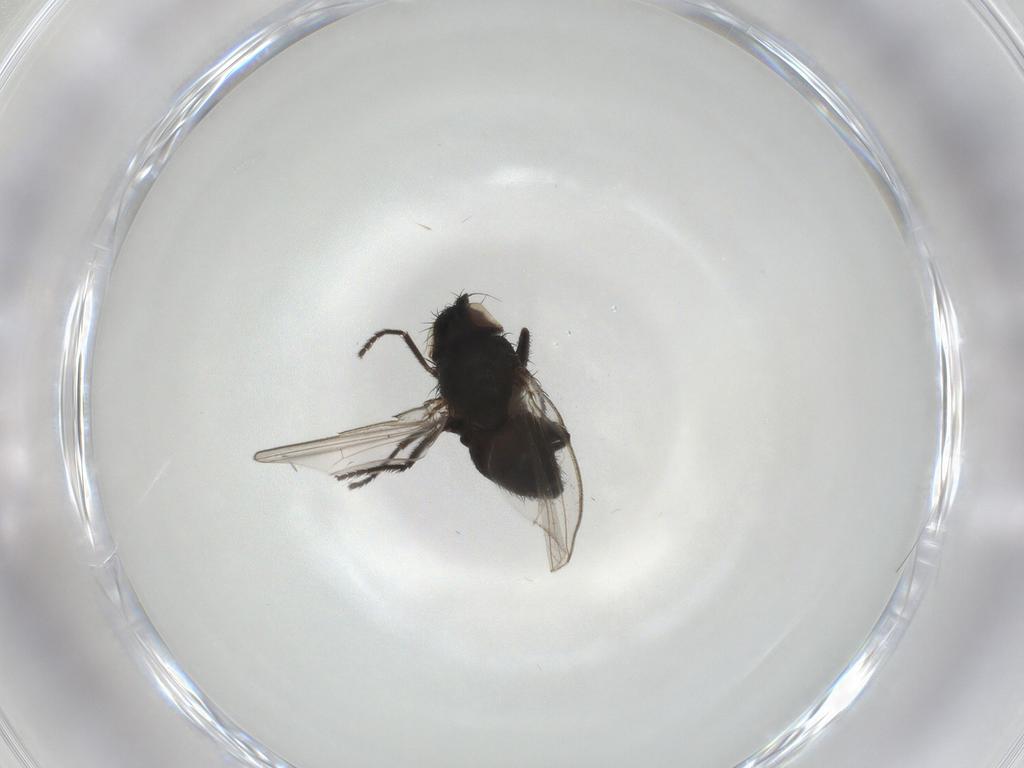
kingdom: Animalia
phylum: Arthropoda
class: Insecta
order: Diptera
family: Milichiidae
